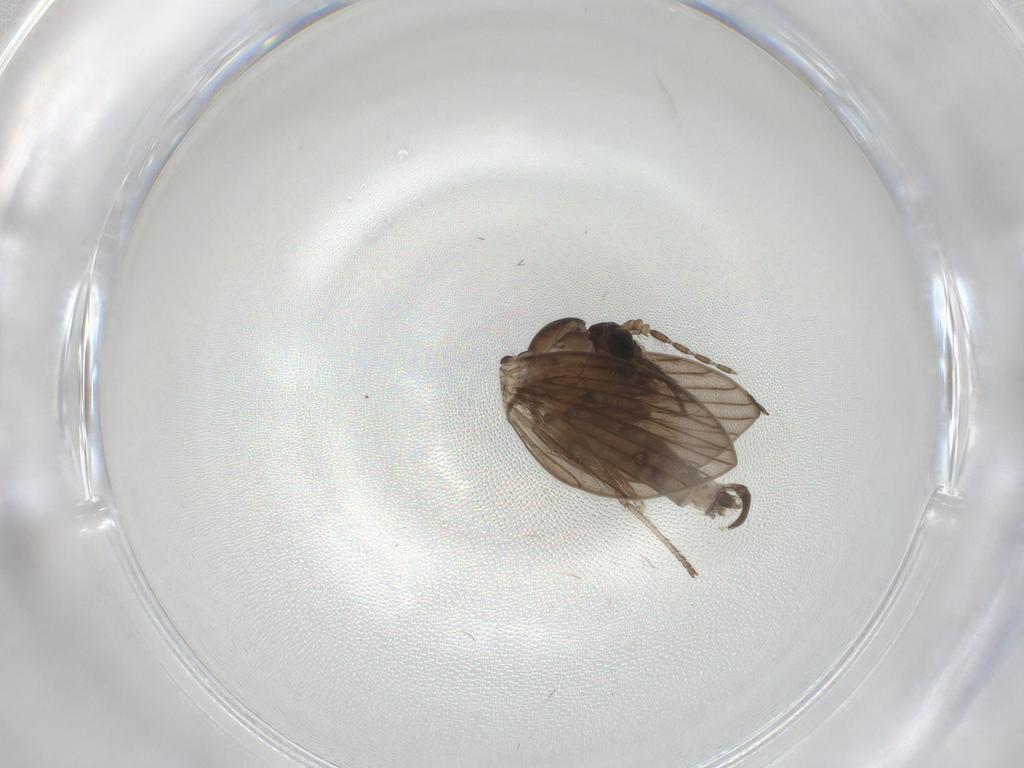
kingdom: Animalia
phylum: Arthropoda
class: Insecta
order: Diptera
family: Psychodidae
